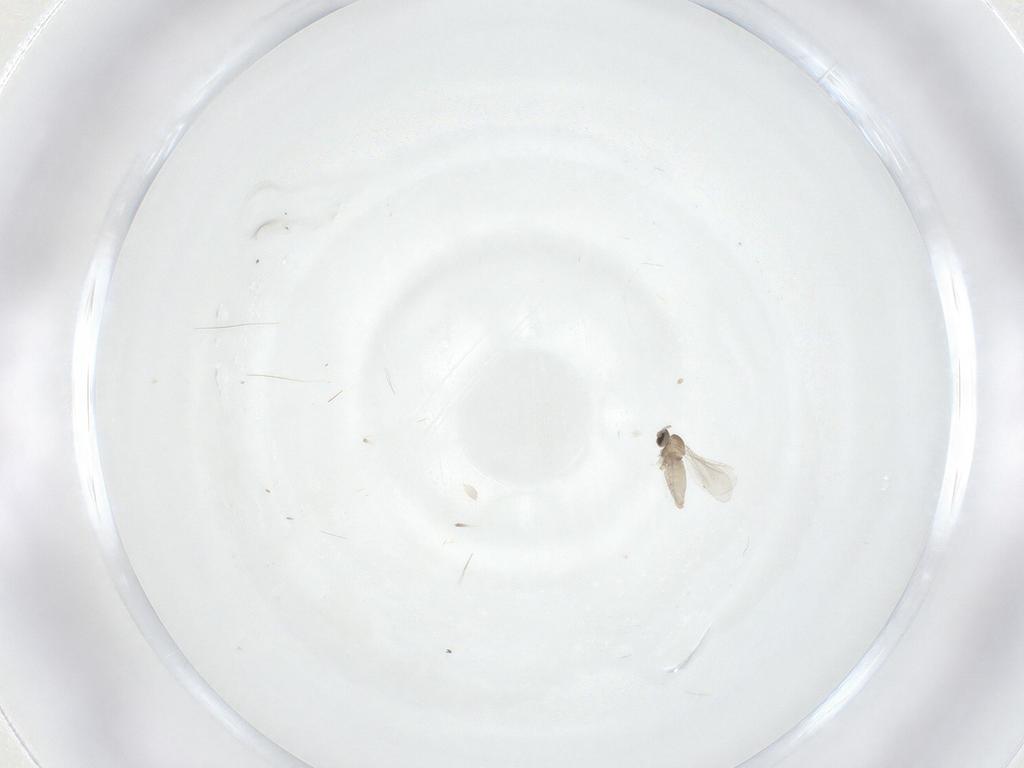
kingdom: Animalia
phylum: Arthropoda
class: Insecta
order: Diptera
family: Cecidomyiidae
